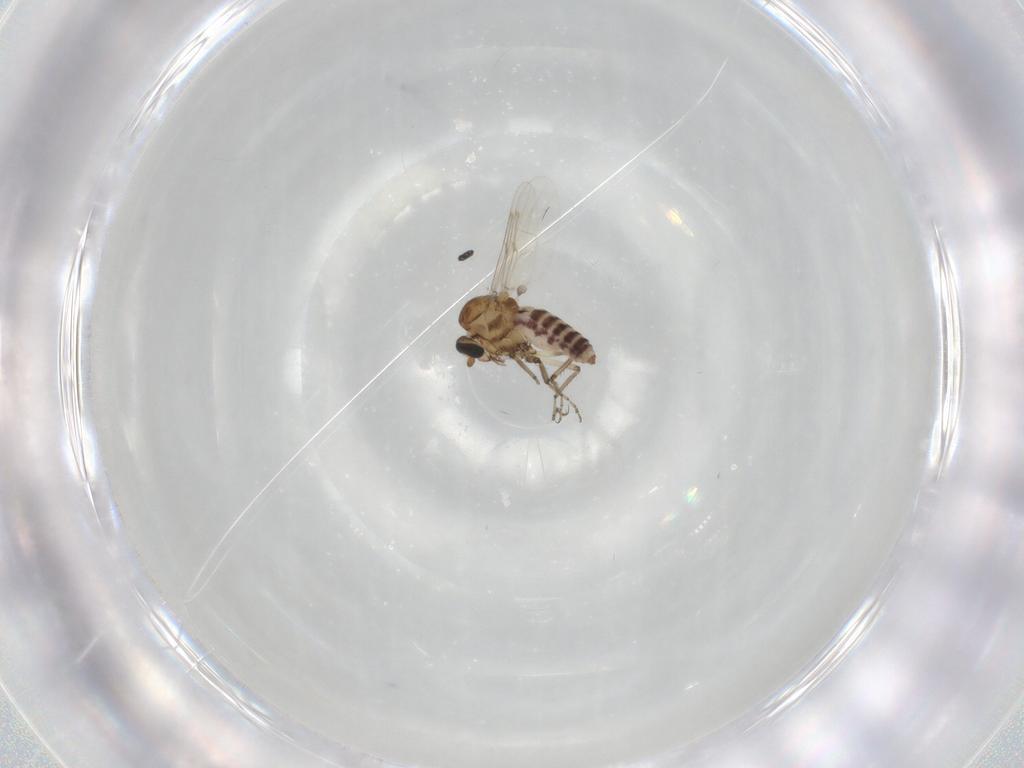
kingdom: Animalia
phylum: Arthropoda
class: Insecta
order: Diptera
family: Ceratopogonidae
